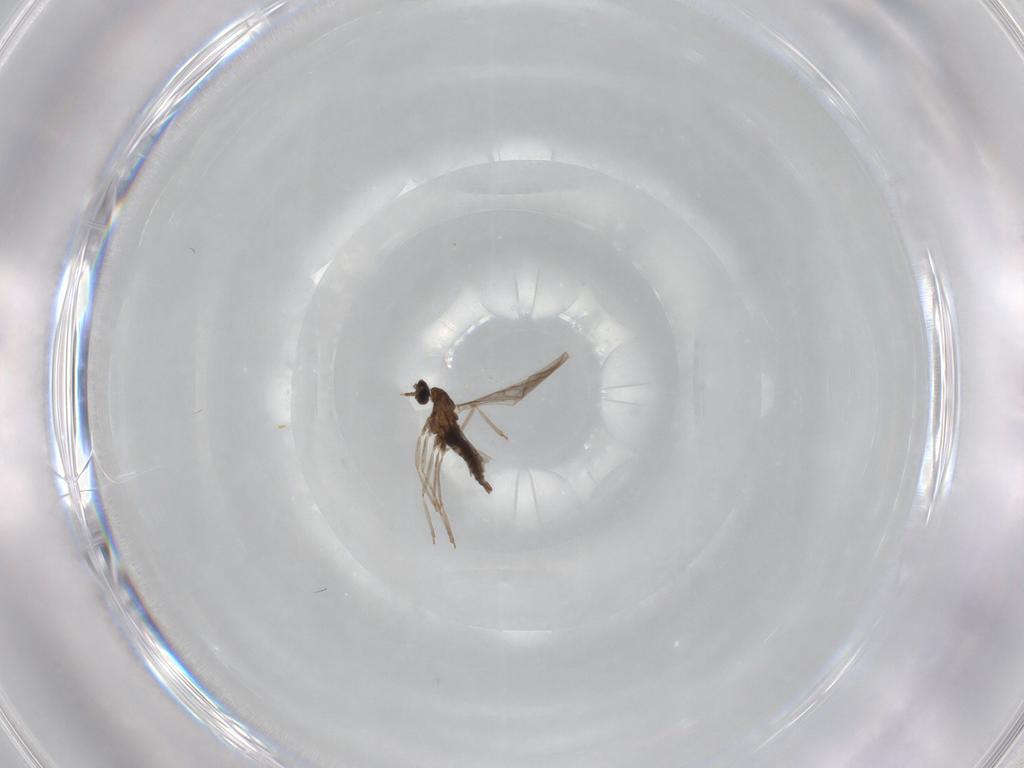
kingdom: Animalia
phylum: Arthropoda
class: Insecta
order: Diptera
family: Cecidomyiidae
